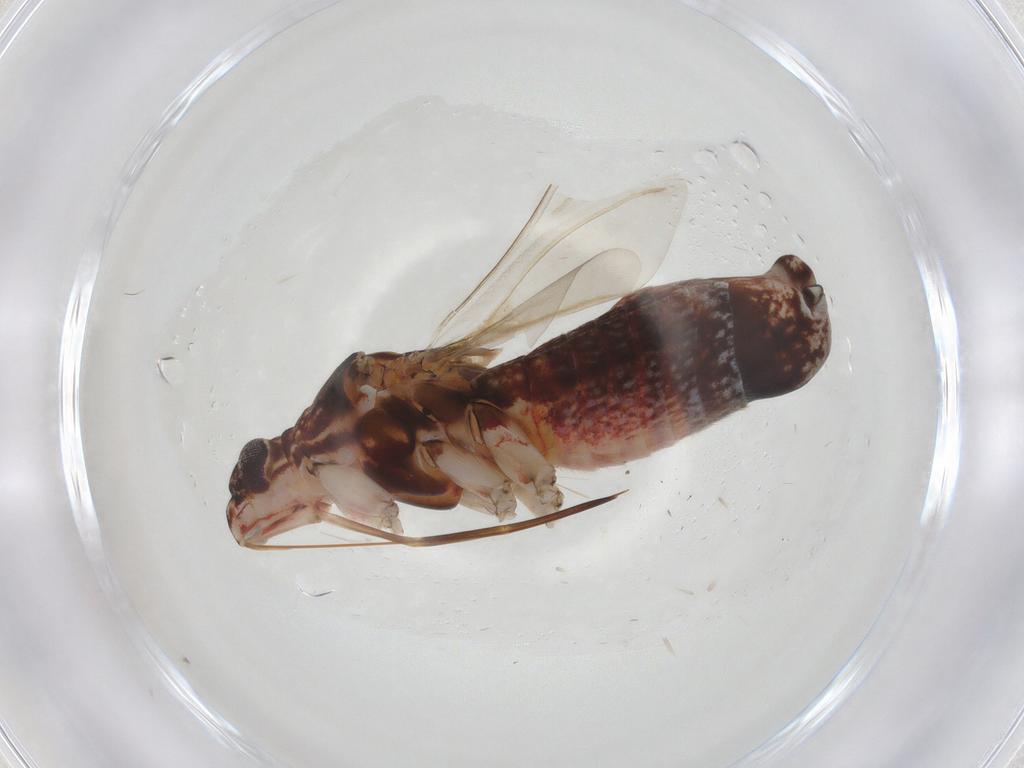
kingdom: Animalia
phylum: Arthropoda
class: Insecta
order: Hemiptera
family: Miridae
